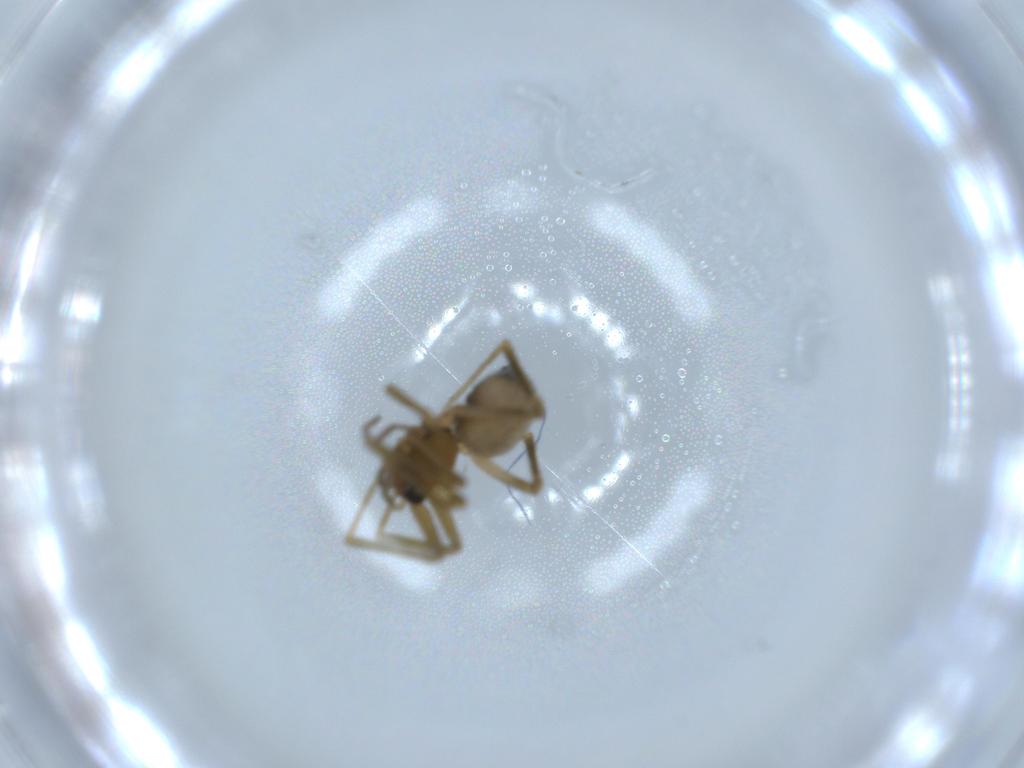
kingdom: Animalia
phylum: Arthropoda
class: Arachnida
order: Araneae
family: Linyphiidae
